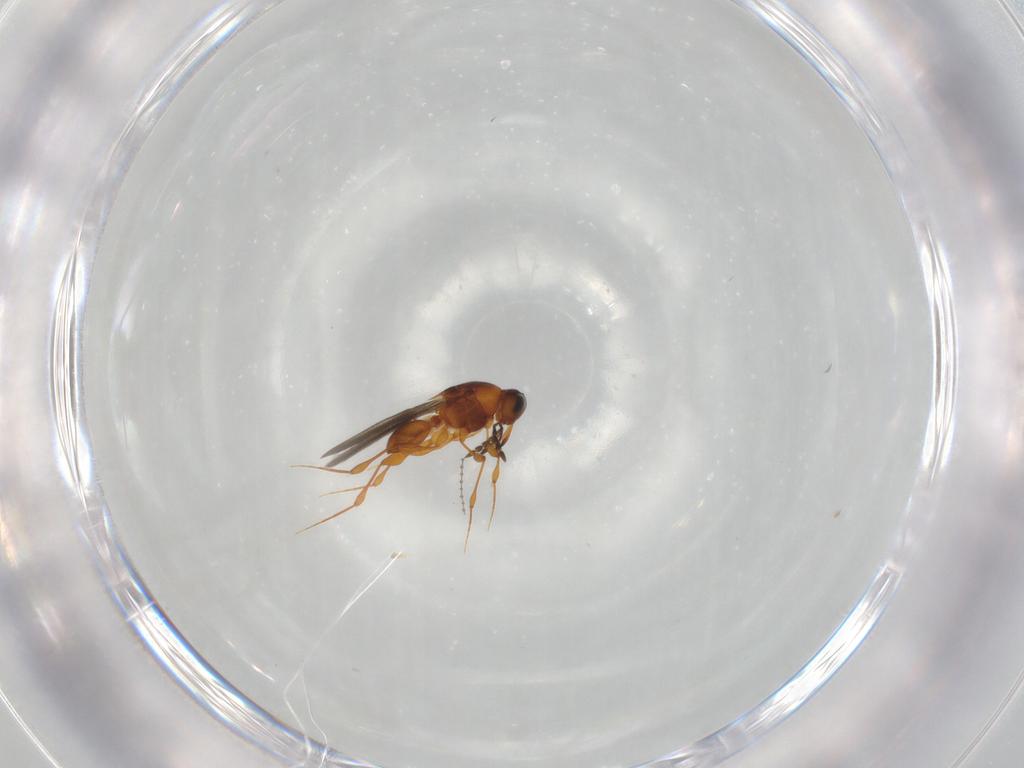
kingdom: Animalia
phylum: Arthropoda
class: Insecta
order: Hymenoptera
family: Platygastridae
